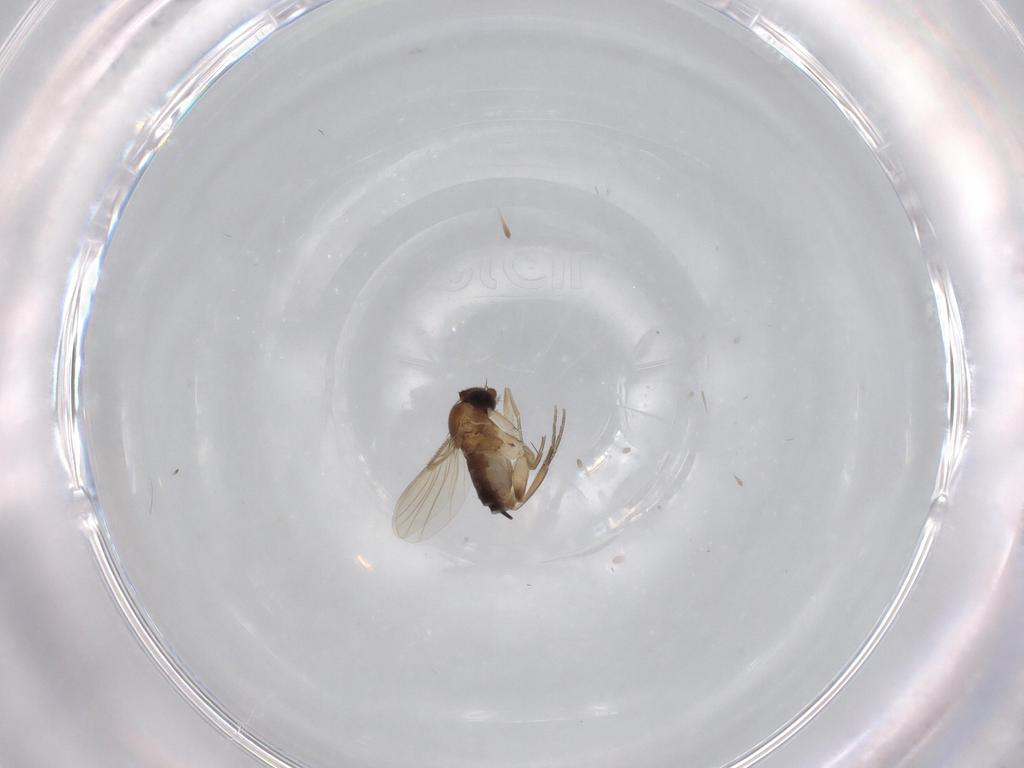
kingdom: Animalia
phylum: Arthropoda
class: Insecta
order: Diptera
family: Phoridae
